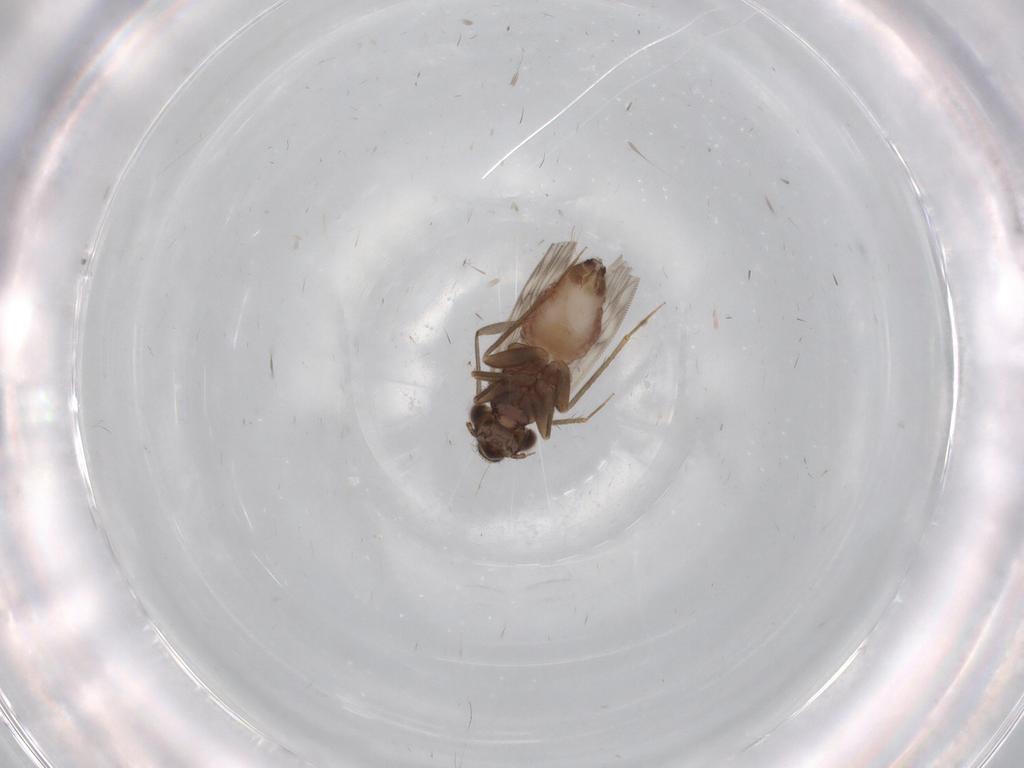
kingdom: Animalia
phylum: Arthropoda
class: Insecta
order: Psocodea
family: Lepidopsocidae
